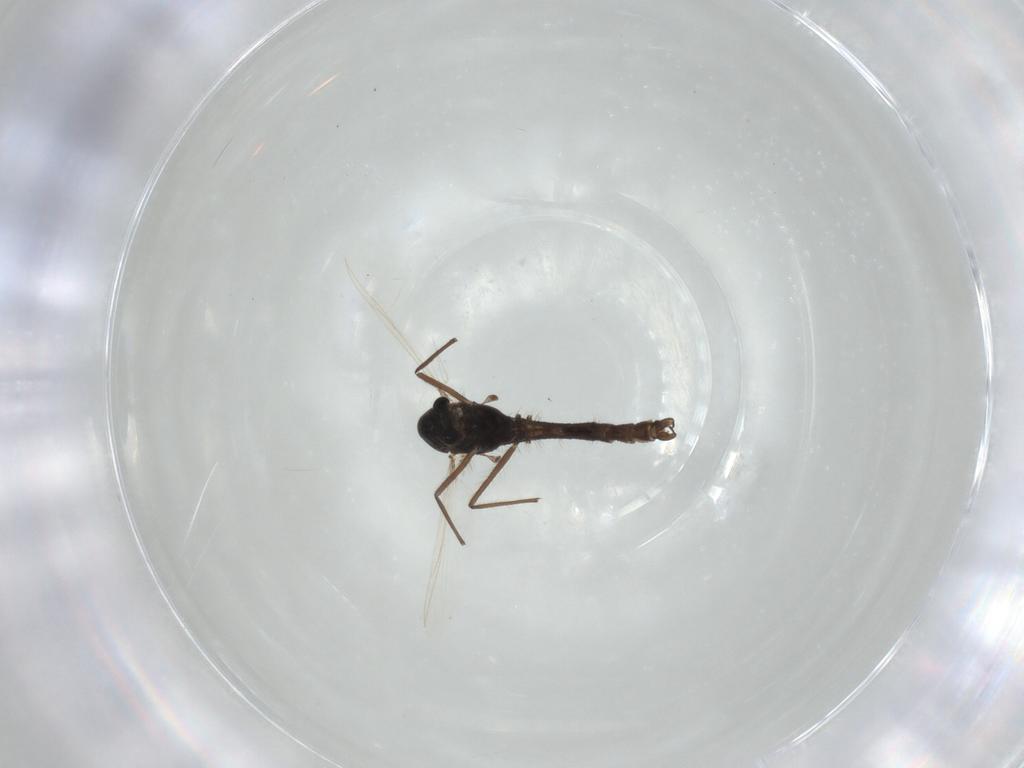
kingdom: Animalia
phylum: Arthropoda
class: Insecta
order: Diptera
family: Chironomidae
